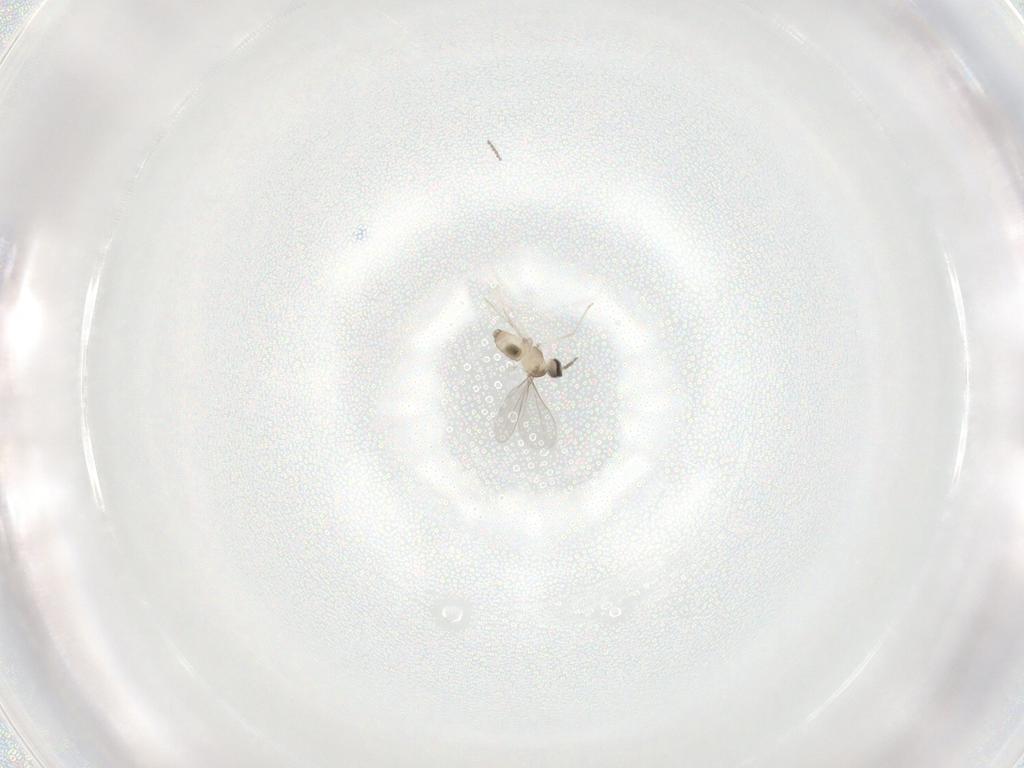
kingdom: Animalia
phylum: Arthropoda
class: Insecta
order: Diptera
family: Cecidomyiidae
